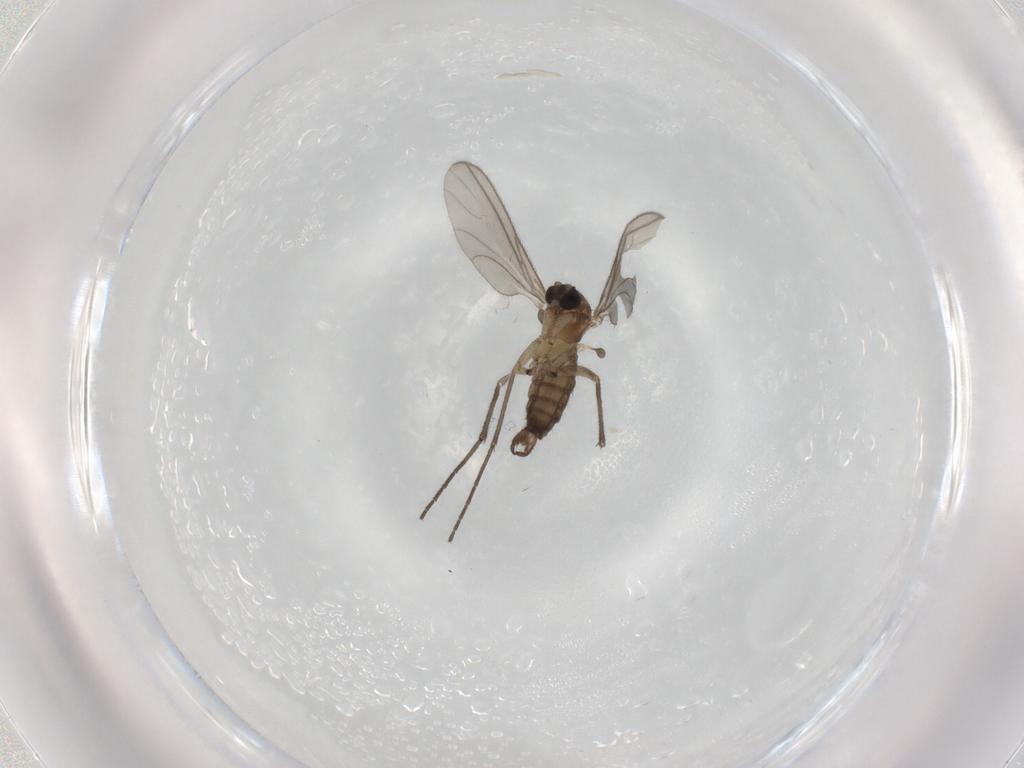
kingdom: Animalia
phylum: Arthropoda
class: Insecta
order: Diptera
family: Sciaridae
